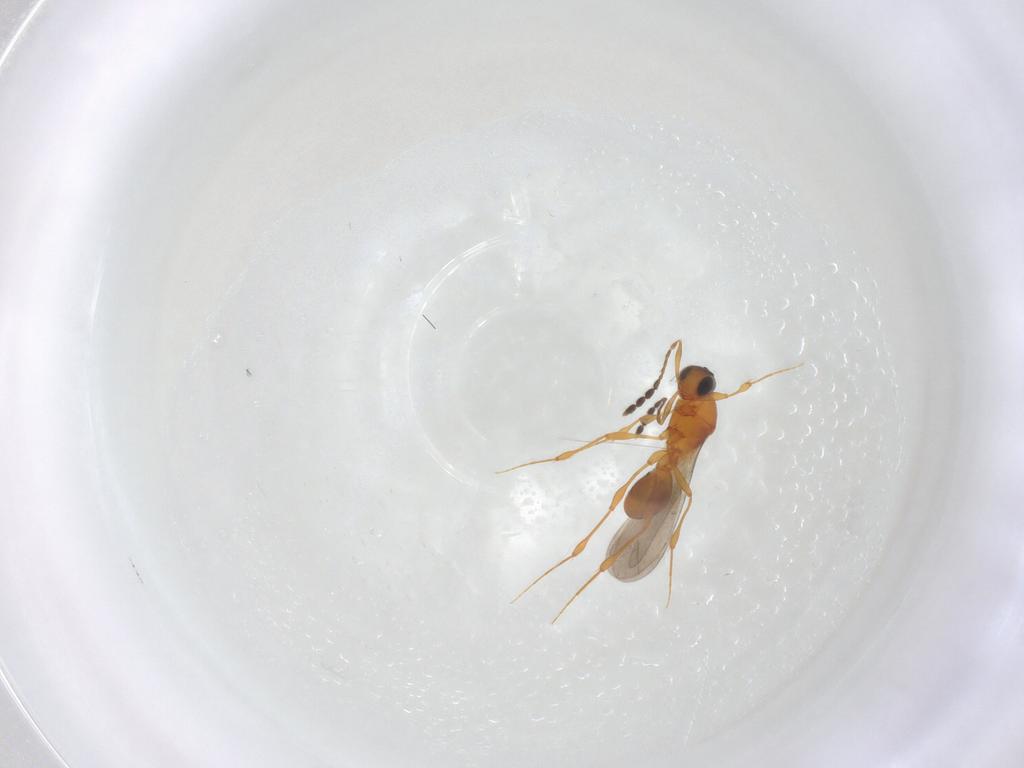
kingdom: Animalia
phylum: Arthropoda
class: Insecta
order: Hymenoptera
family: Platygastridae
